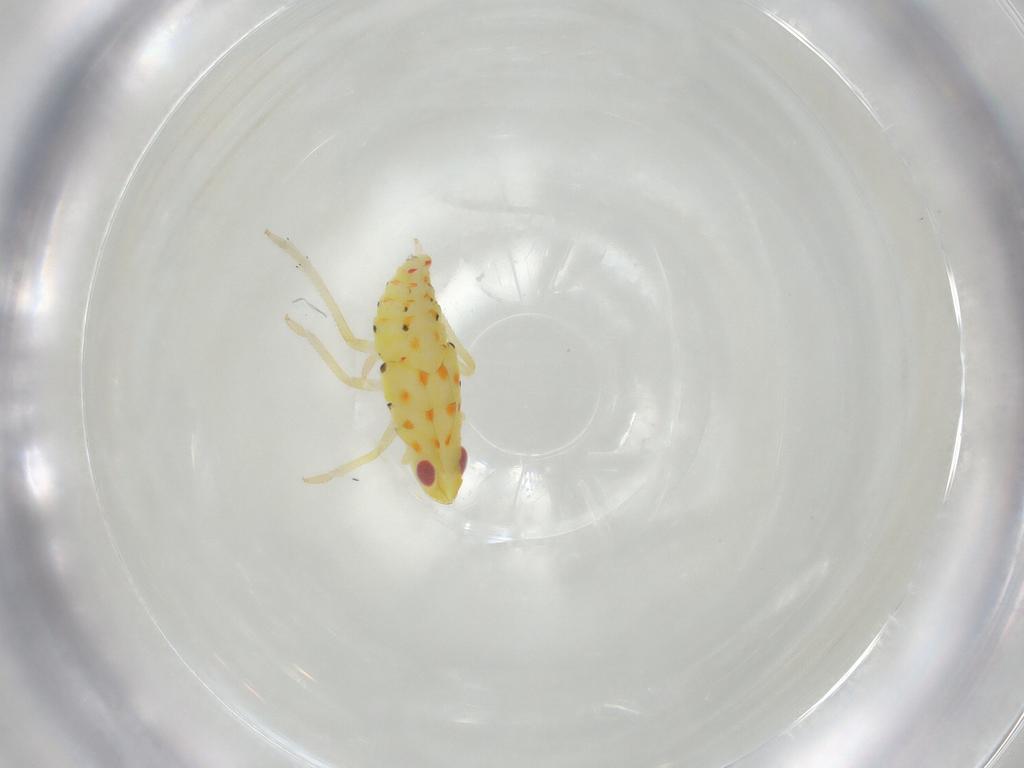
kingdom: Animalia
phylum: Arthropoda
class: Insecta
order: Hemiptera
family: Tropiduchidae
